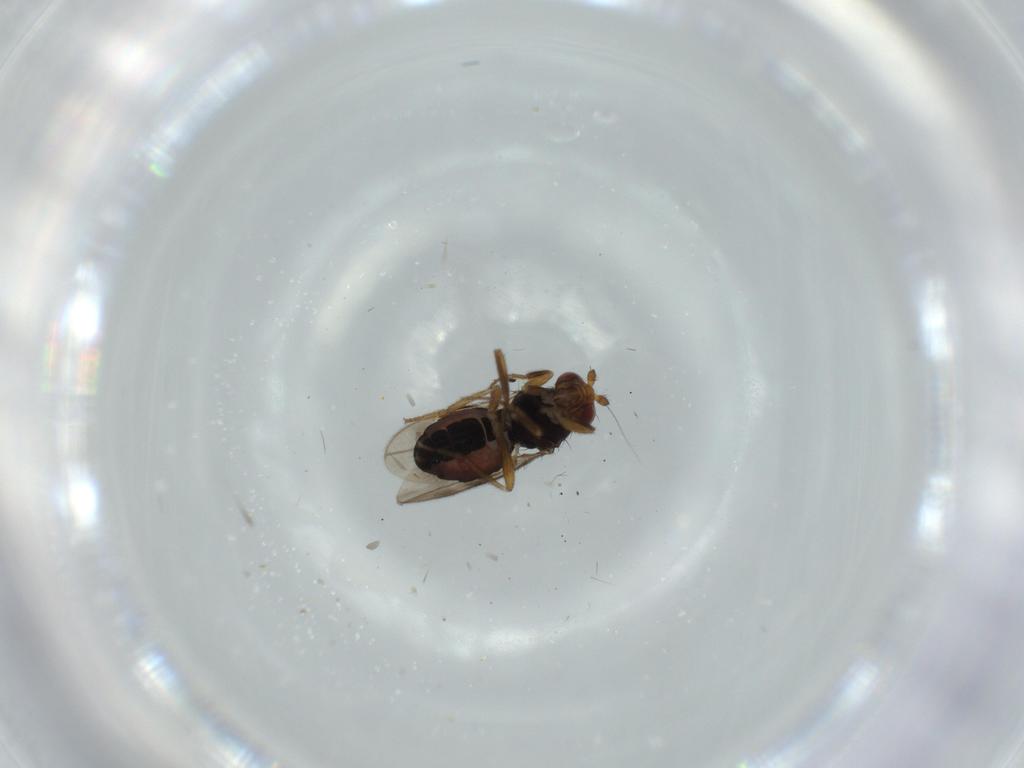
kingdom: Animalia
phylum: Arthropoda
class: Insecta
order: Diptera
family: Sphaeroceridae
